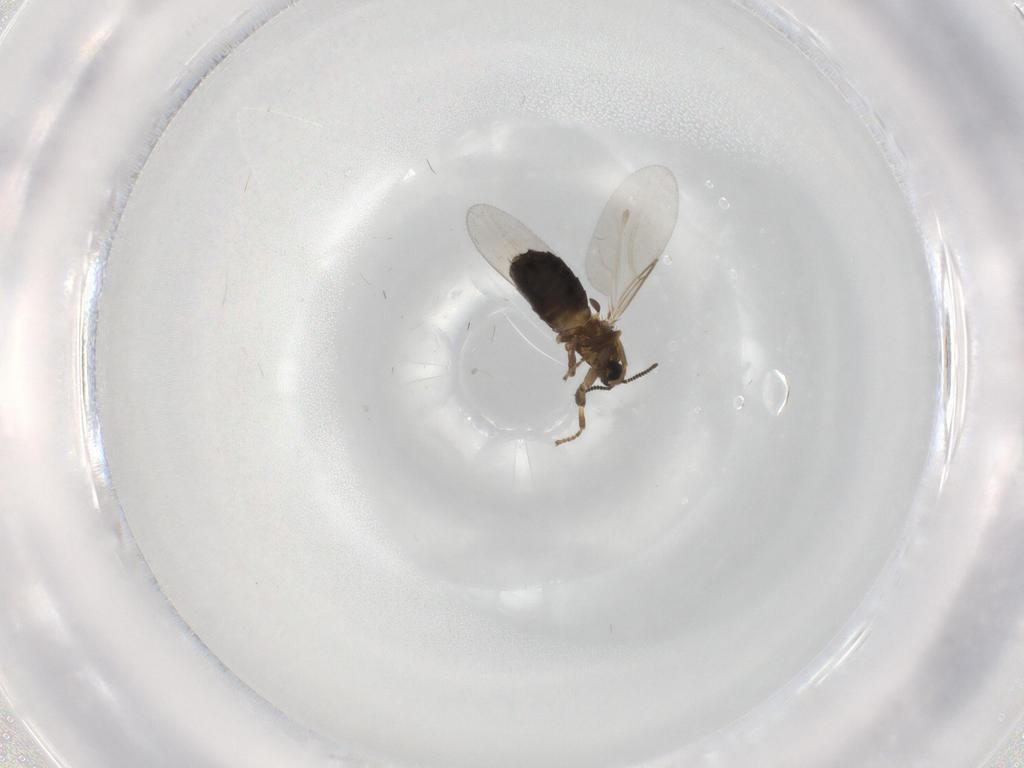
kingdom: Animalia
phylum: Arthropoda
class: Insecta
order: Diptera
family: Scatopsidae
